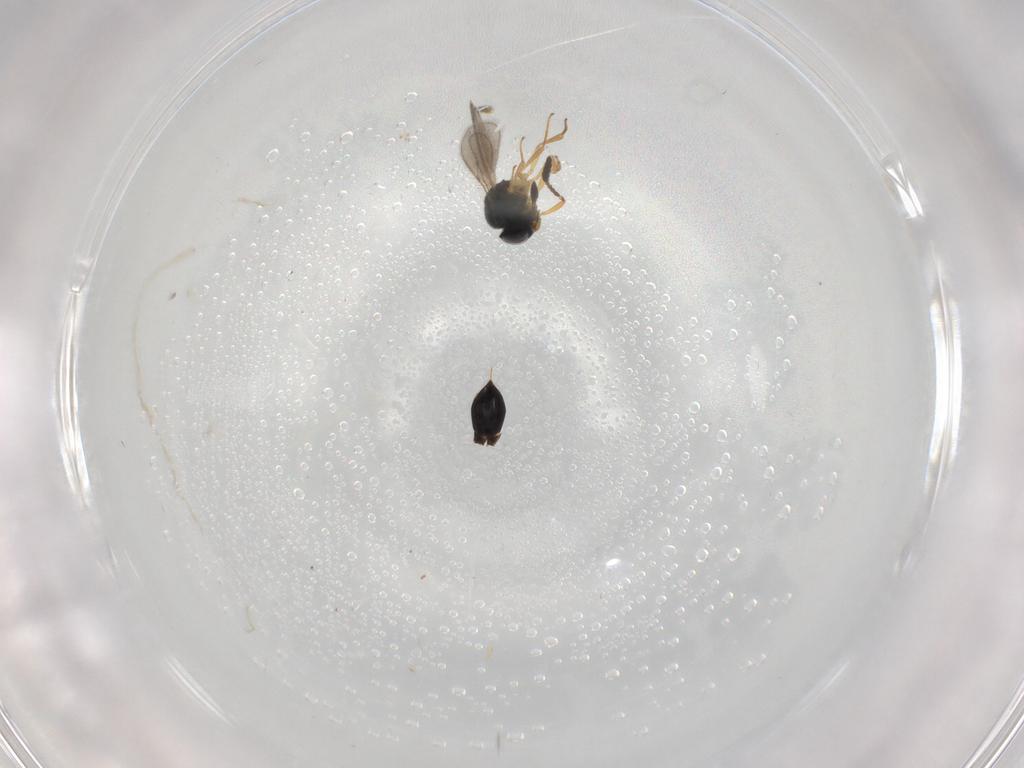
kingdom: Animalia
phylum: Arthropoda
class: Insecta
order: Hymenoptera
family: Scelionidae
